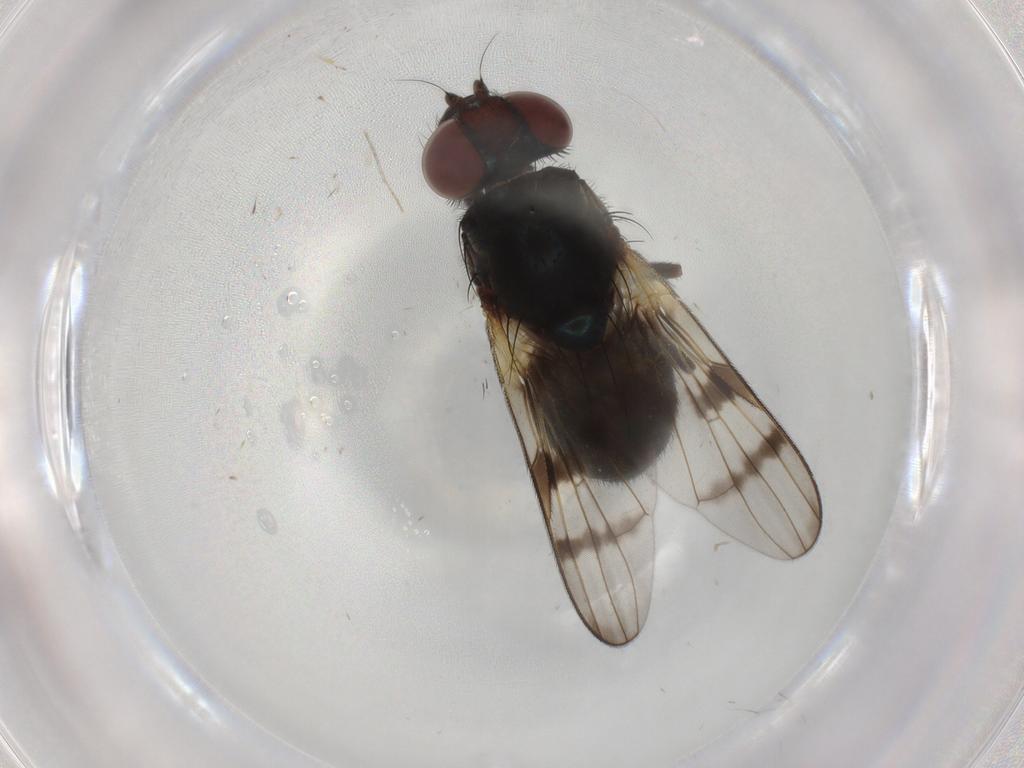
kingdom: Animalia
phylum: Arthropoda
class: Insecta
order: Diptera
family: Cecidomyiidae
